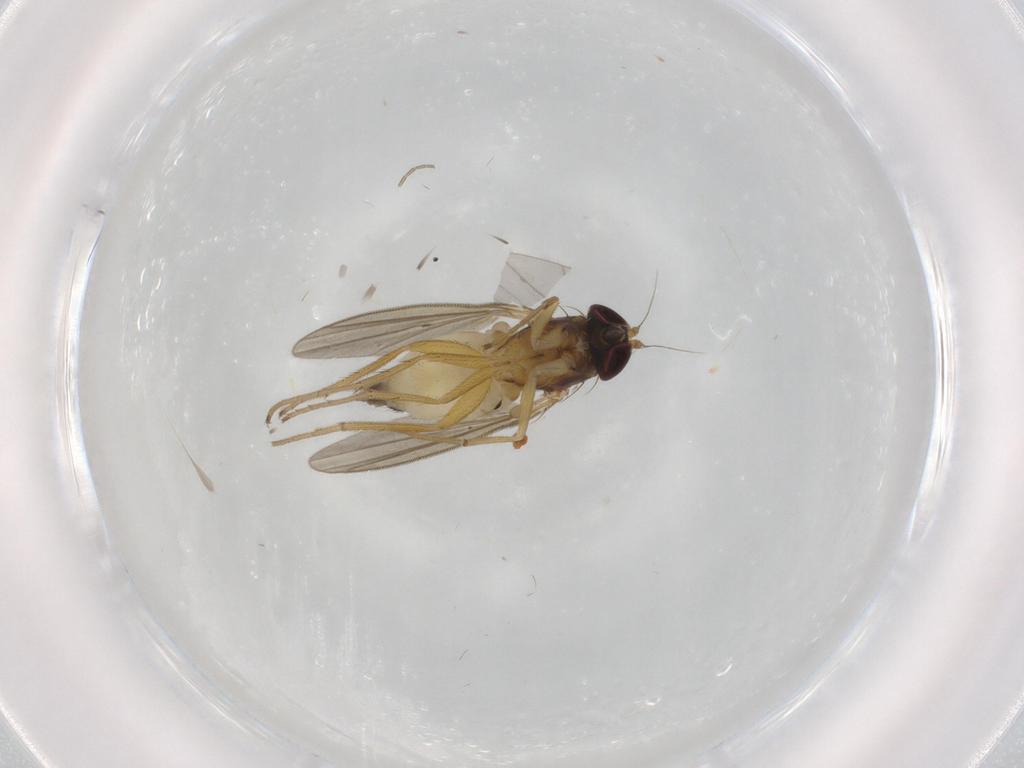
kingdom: Animalia
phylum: Arthropoda
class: Insecta
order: Diptera
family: Dolichopodidae
